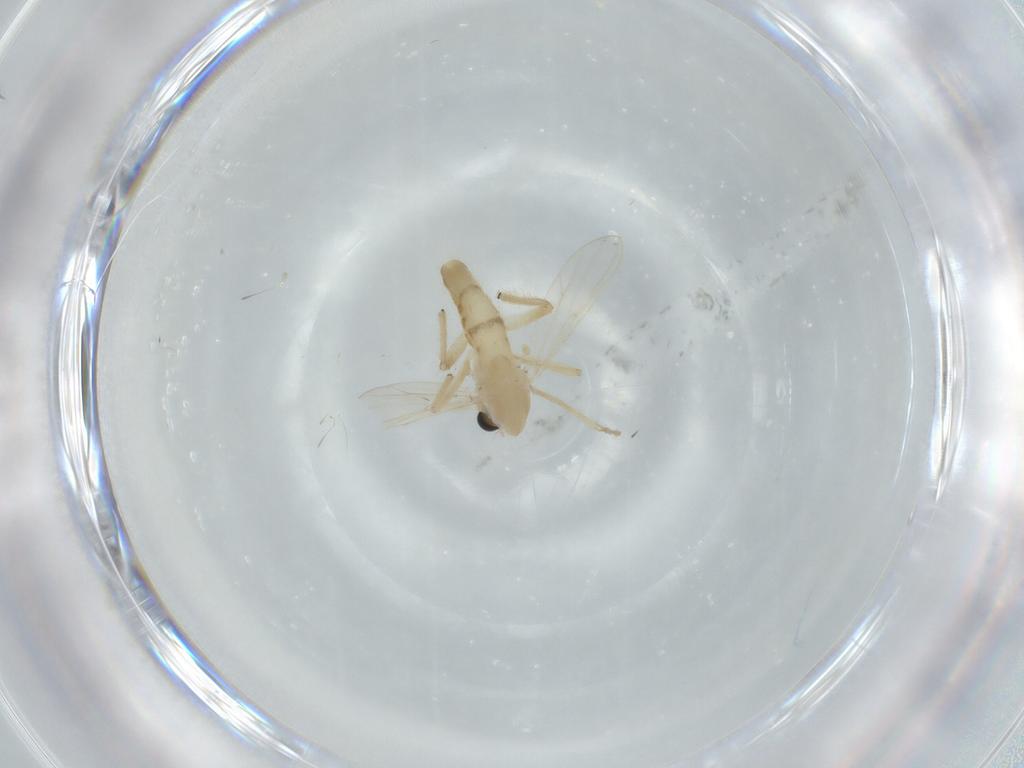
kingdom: Animalia
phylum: Arthropoda
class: Insecta
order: Diptera
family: Chironomidae
